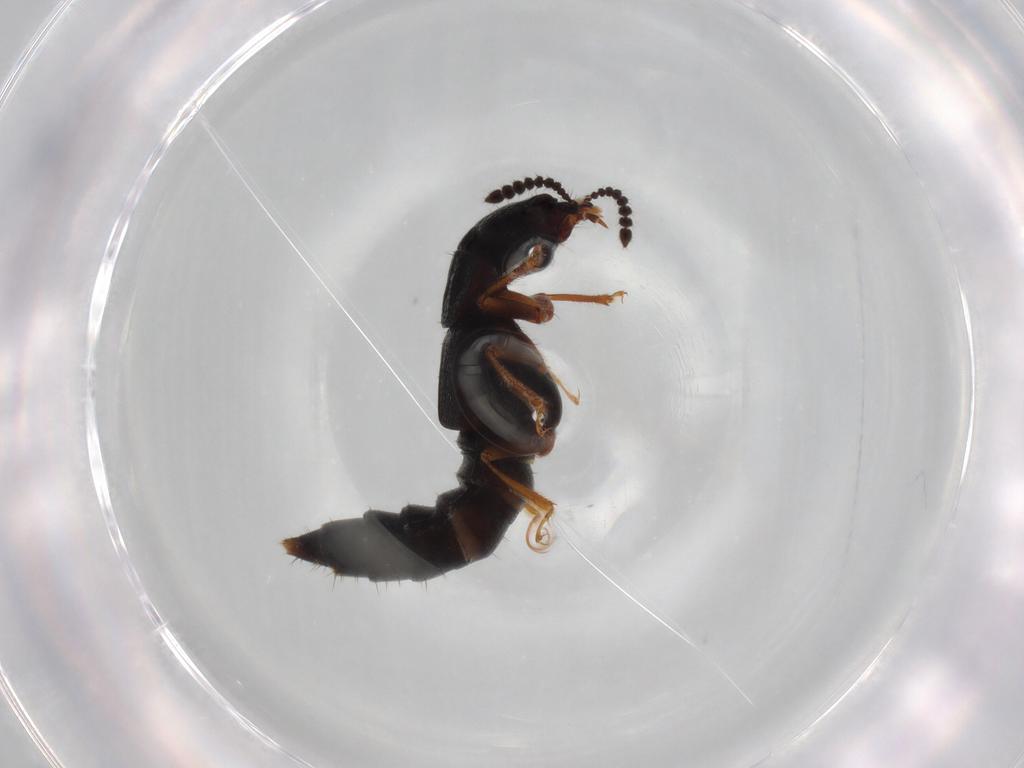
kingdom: Animalia
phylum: Arthropoda
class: Insecta
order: Coleoptera
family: Staphylinidae
